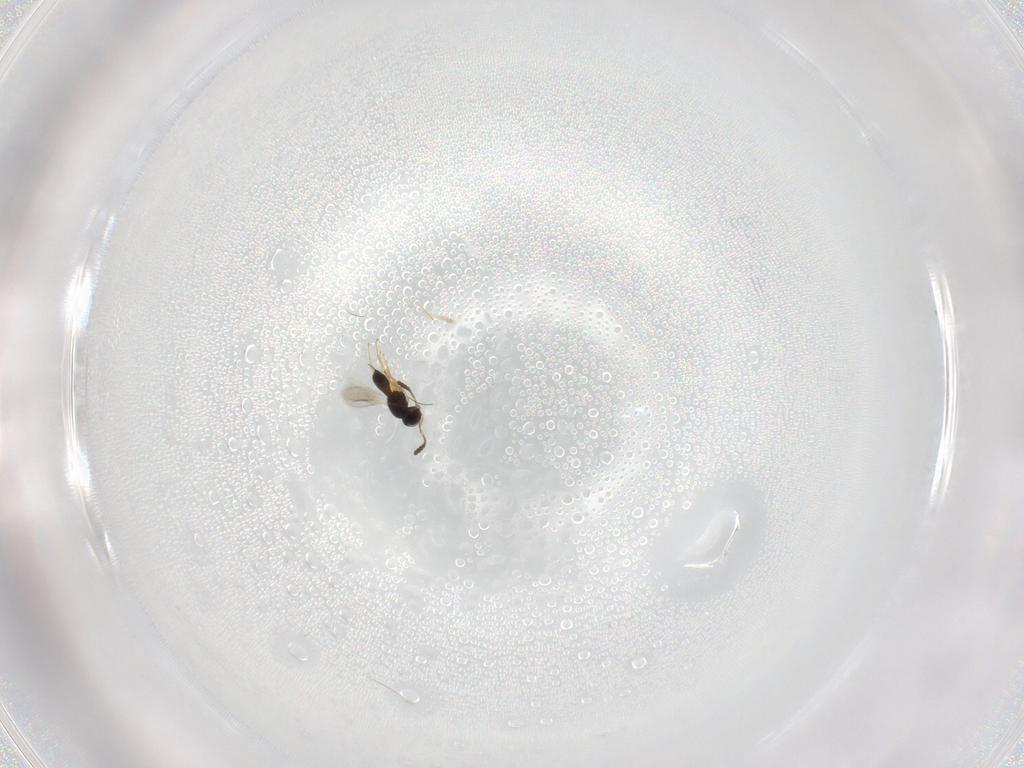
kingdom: Animalia
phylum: Arthropoda
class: Insecta
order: Hymenoptera
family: Scelionidae
